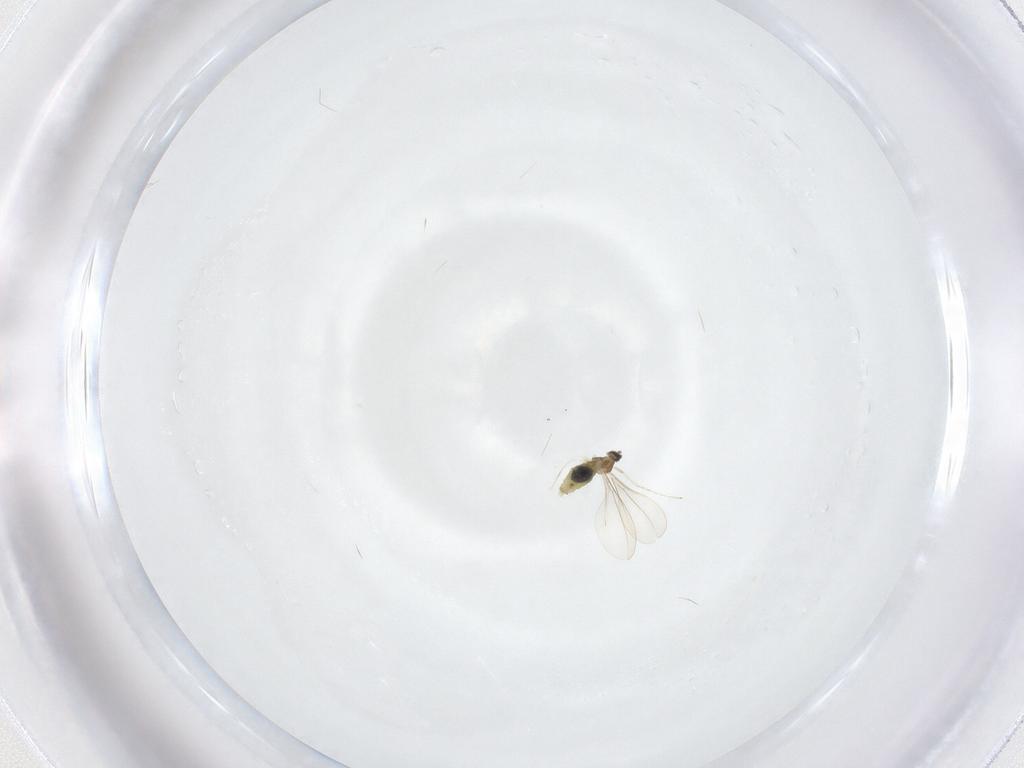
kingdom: Animalia
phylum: Arthropoda
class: Insecta
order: Diptera
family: Cecidomyiidae
